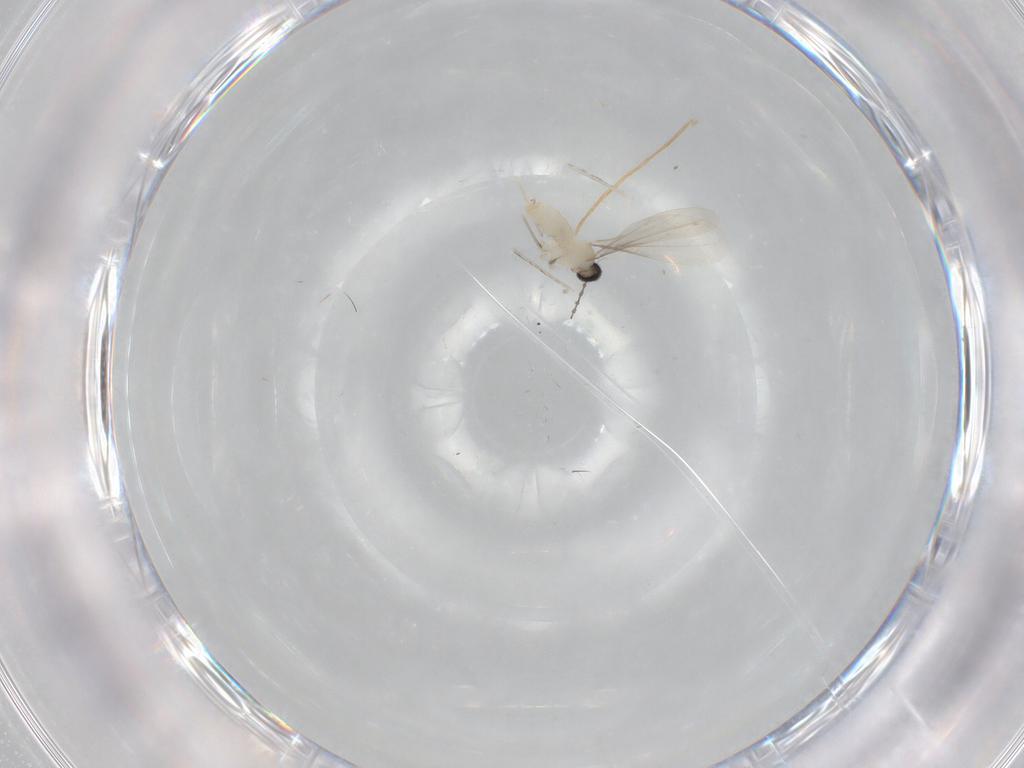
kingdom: Animalia
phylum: Arthropoda
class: Insecta
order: Diptera
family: Cecidomyiidae
